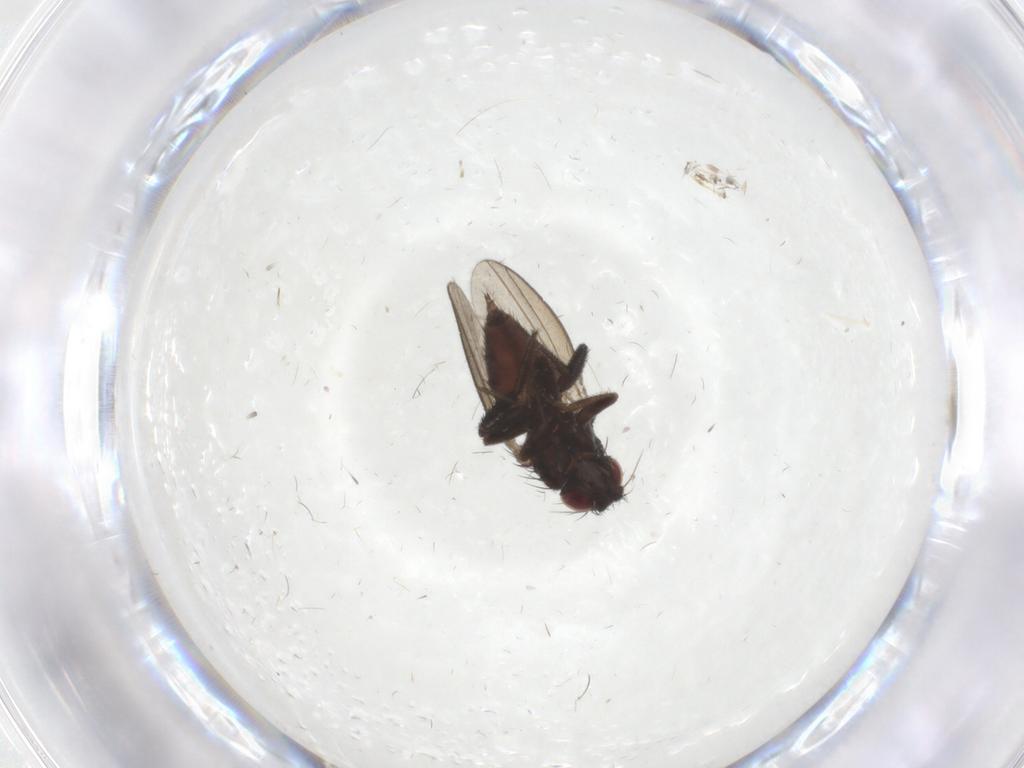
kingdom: Animalia
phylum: Arthropoda
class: Insecta
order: Diptera
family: Milichiidae
